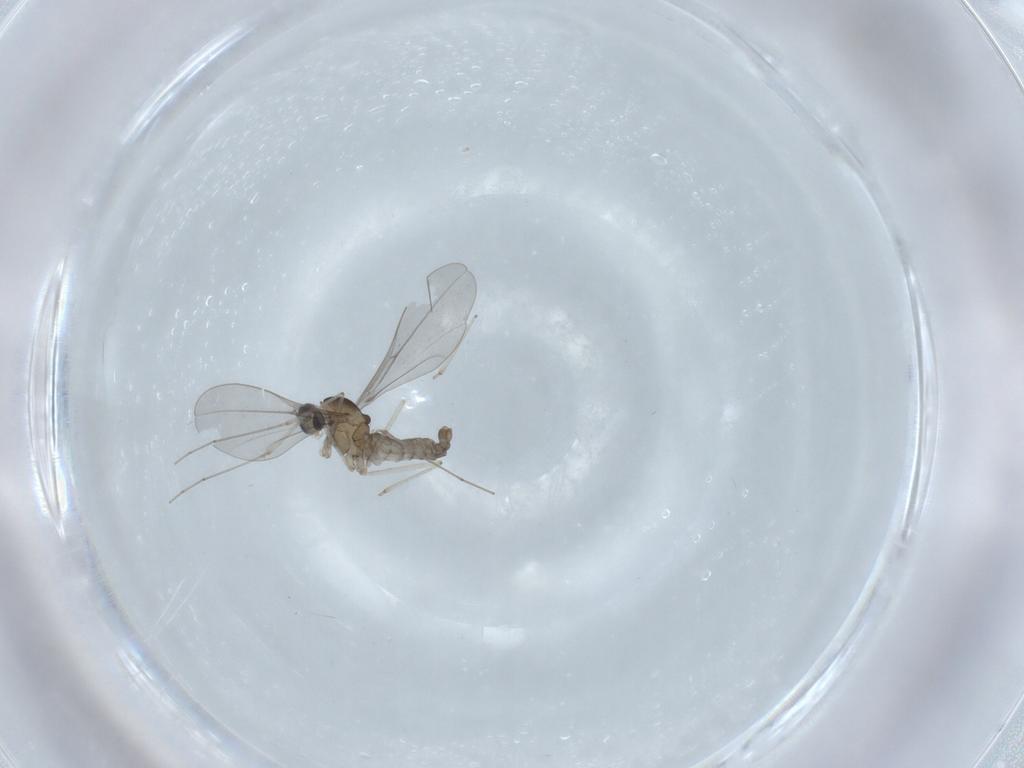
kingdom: Animalia
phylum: Arthropoda
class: Insecta
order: Diptera
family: Cecidomyiidae
